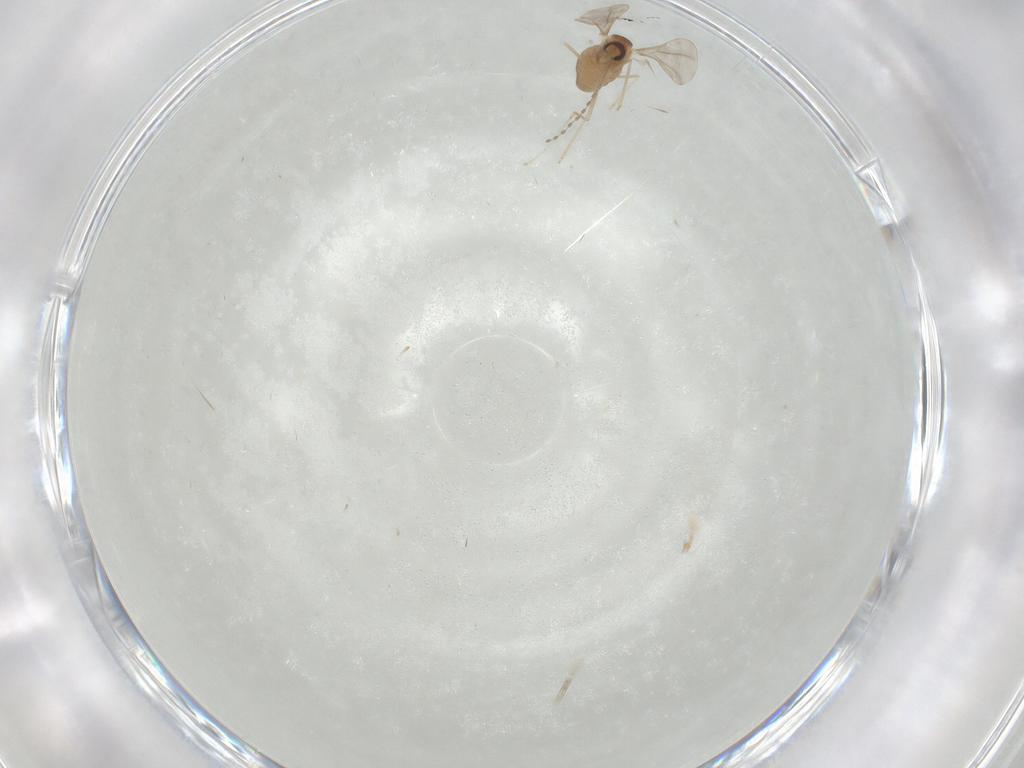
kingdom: Animalia
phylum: Arthropoda
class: Insecta
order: Diptera
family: Cecidomyiidae
